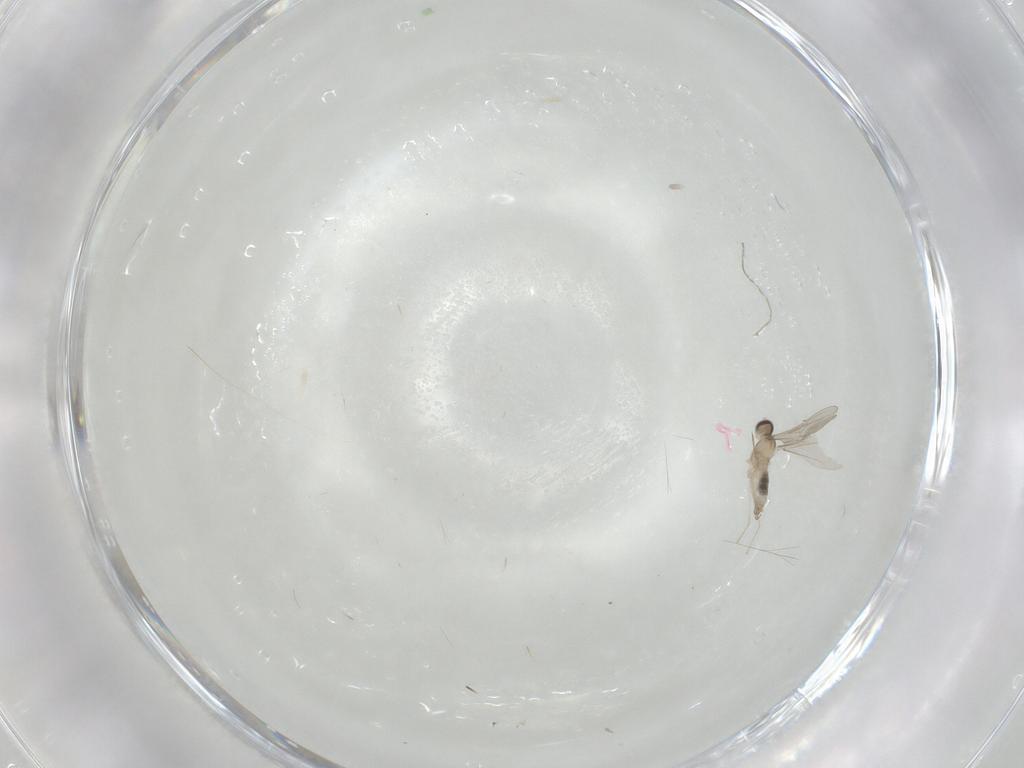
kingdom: Animalia
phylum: Arthropoda
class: Insecta
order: Diptera
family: Cecidomyiidae
